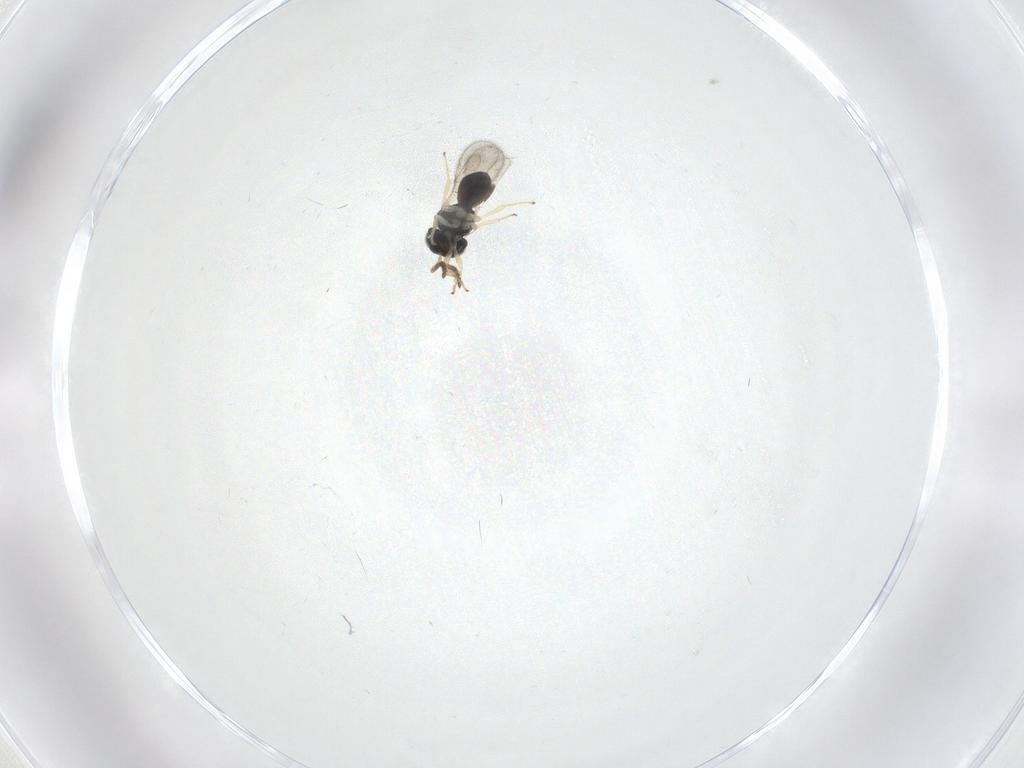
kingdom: Animalia
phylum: Arthropoda
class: Insecta
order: Hymenoptera
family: Scelionidae
